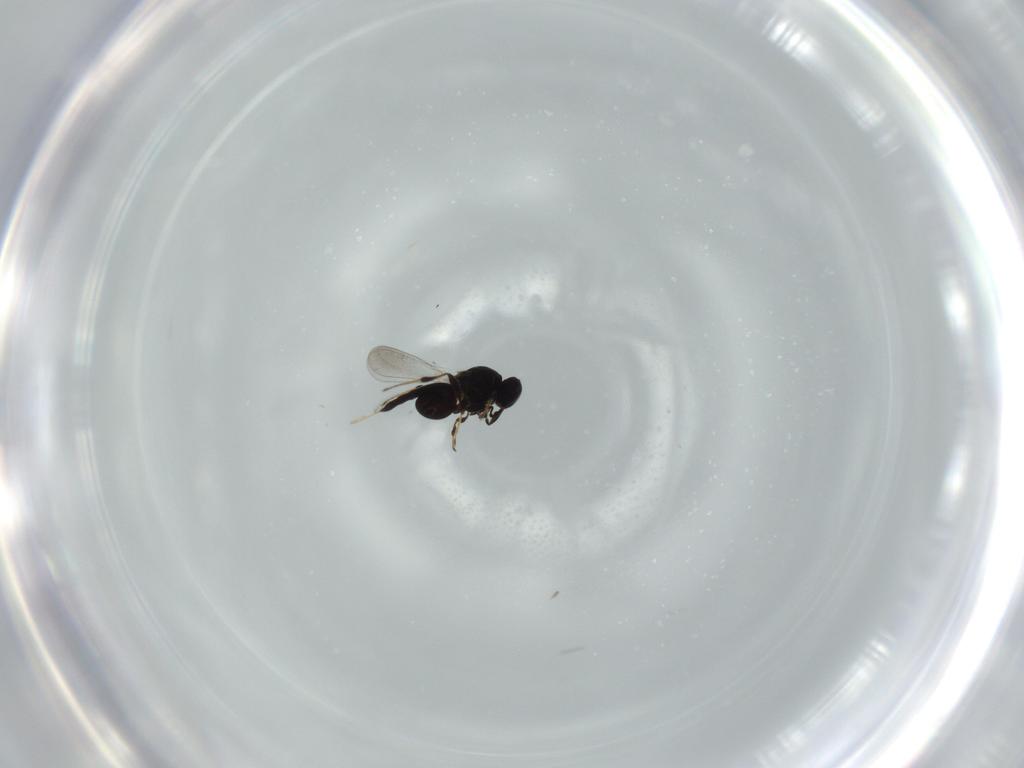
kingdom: Animalia
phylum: Arthropoda
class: Insecta
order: Hymenoptera
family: Platygastridae
